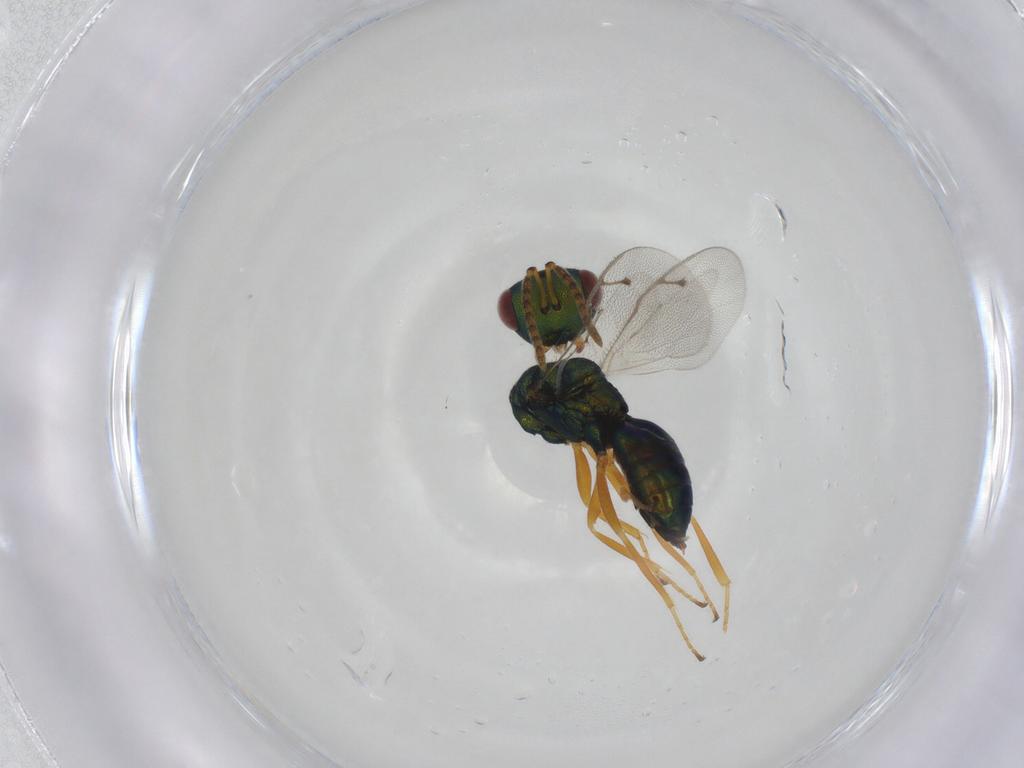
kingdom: Animalia
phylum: Arthropoda
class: Insecta
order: Hymenoptera
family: Pteromalidae
